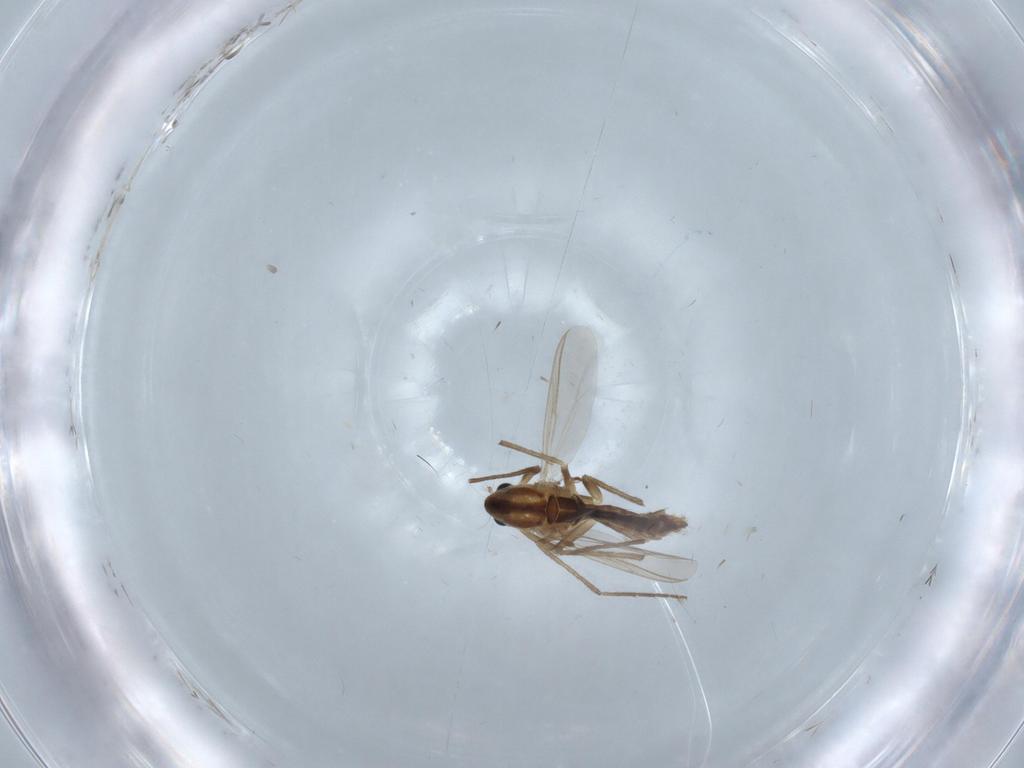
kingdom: Animalia
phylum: Arthropoda
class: Insecta
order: Diptera
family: Chironomidae
